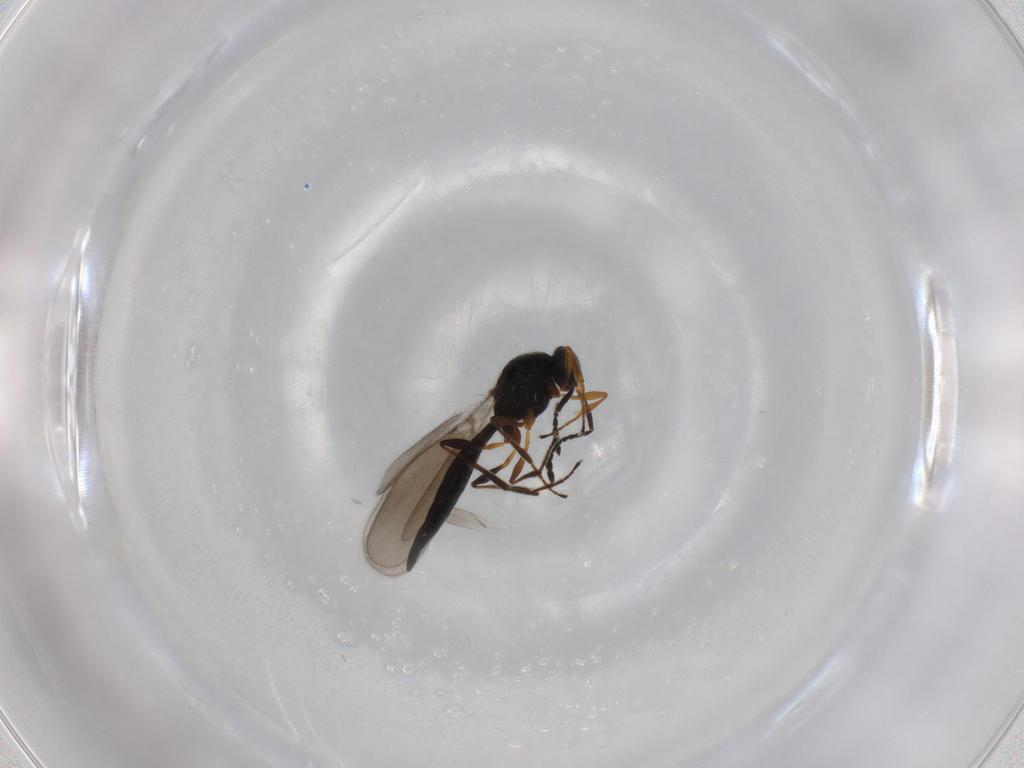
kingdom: Animalia
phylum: Arthropoda
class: Insecta
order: Hymenoptera
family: Platygastridae
